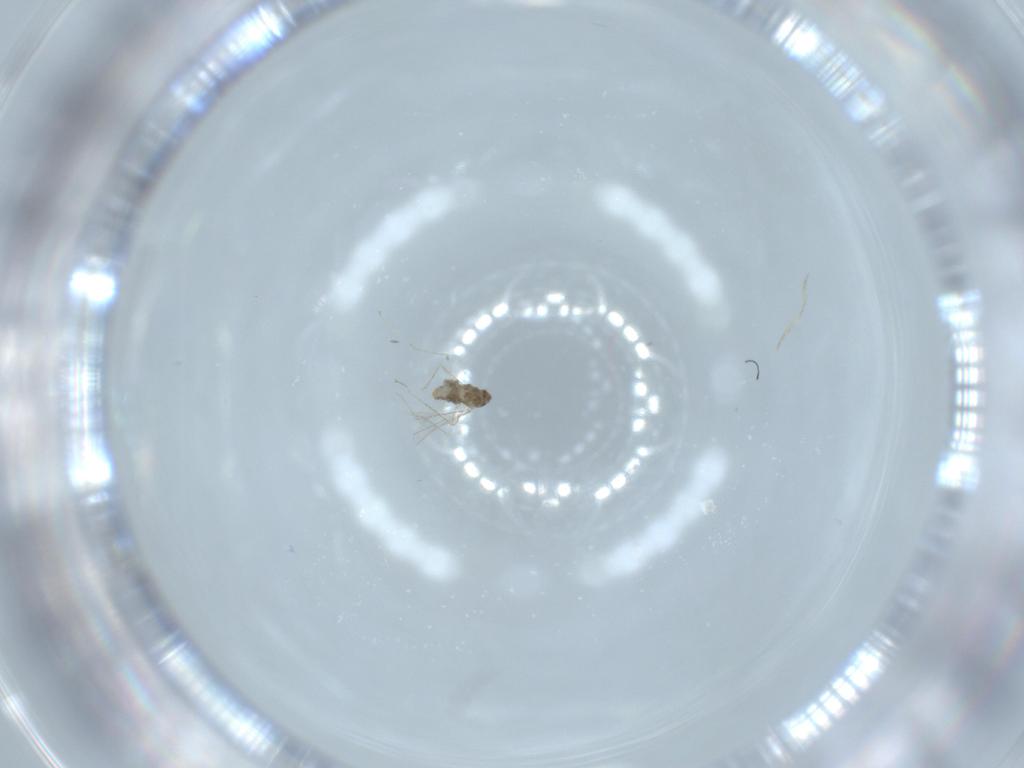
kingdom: Animalia
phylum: Arthropoda
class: Insecta
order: Diptera
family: Cecidomyiidae
